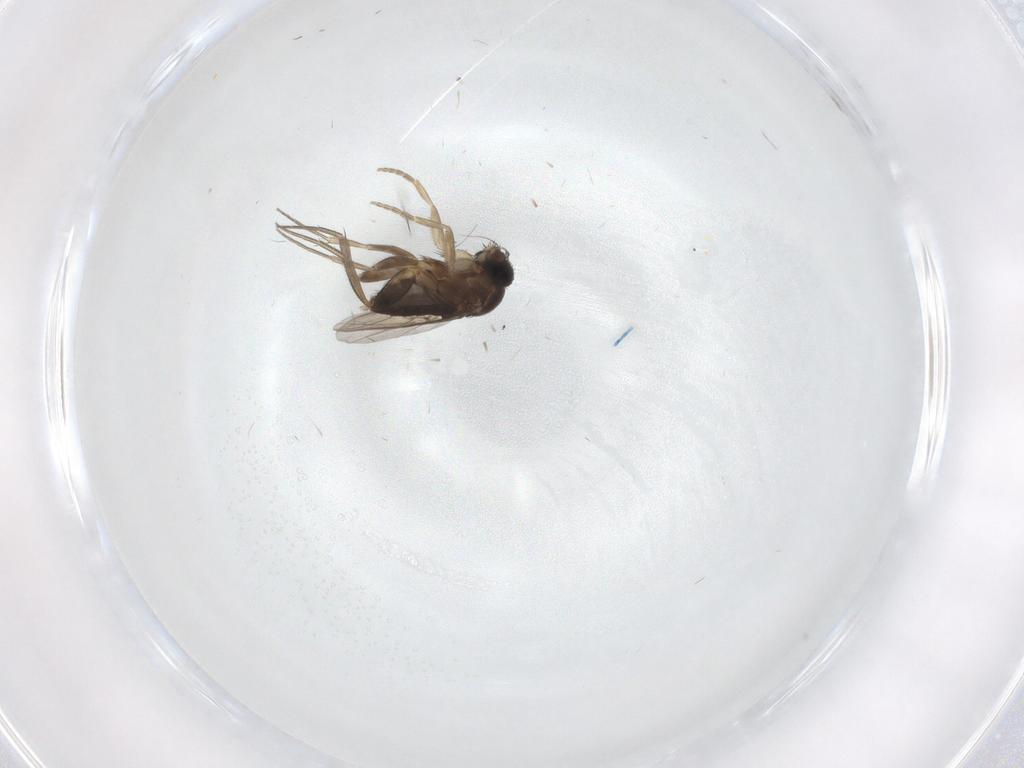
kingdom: Animalia
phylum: Arthropoda
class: Insecta
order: Diptera
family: Phoridae
